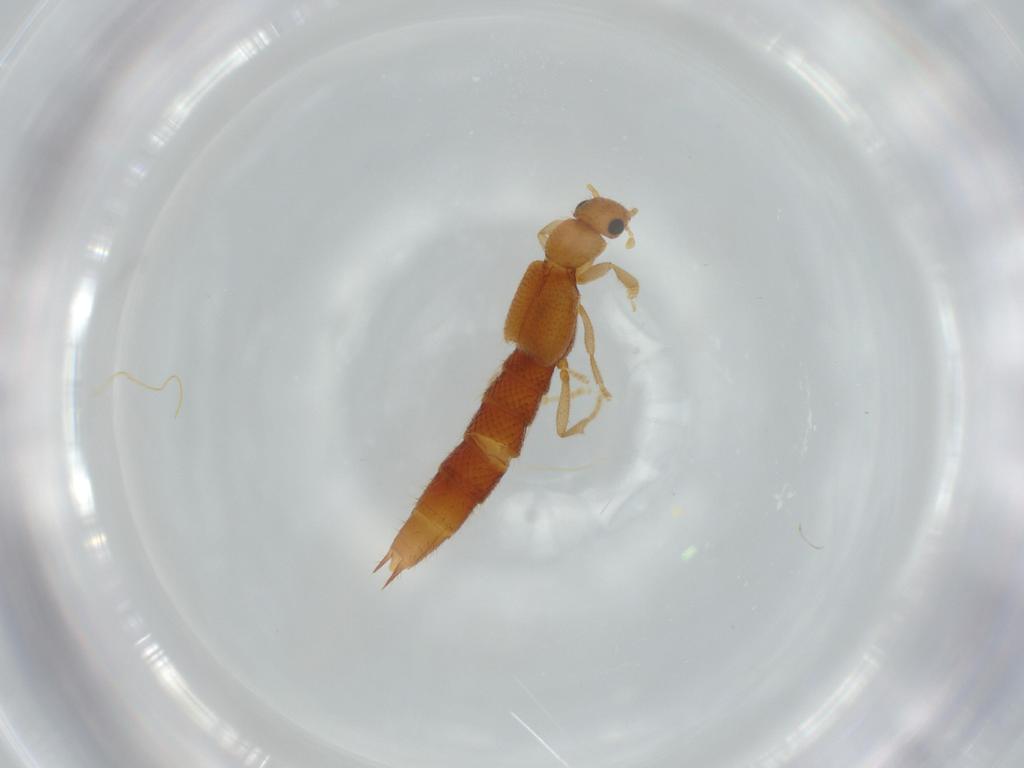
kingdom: Animalia
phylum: Arthropoda
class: Insecta
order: Coleoptera
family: Staphylinidae
